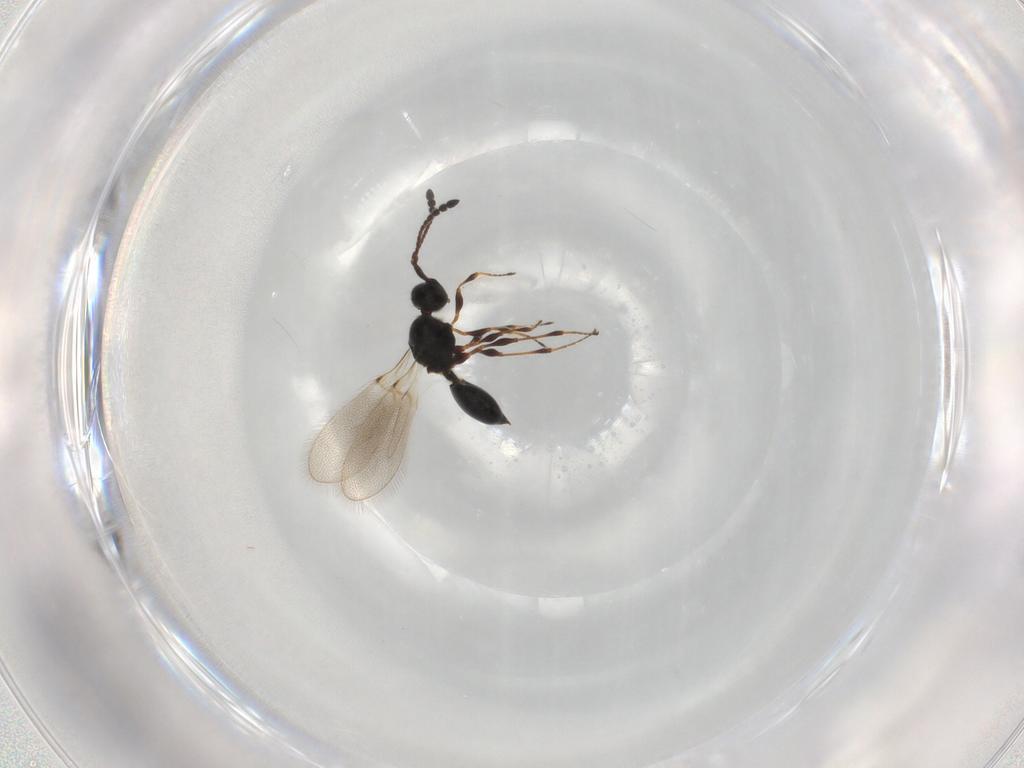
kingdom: Animalia
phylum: Arthropoda
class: Insecta
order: Hymenoptera
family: Diapriidae
